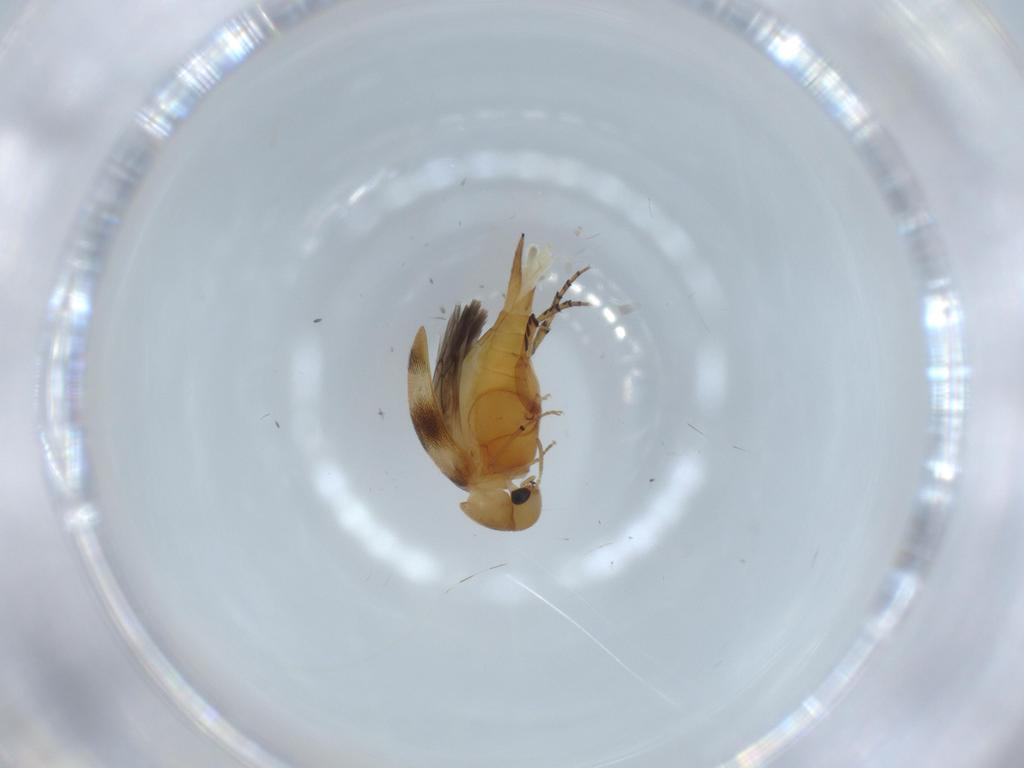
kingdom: Animalia
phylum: Arthropoda
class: Insecta
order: Coleoptera
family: Mordellidae
